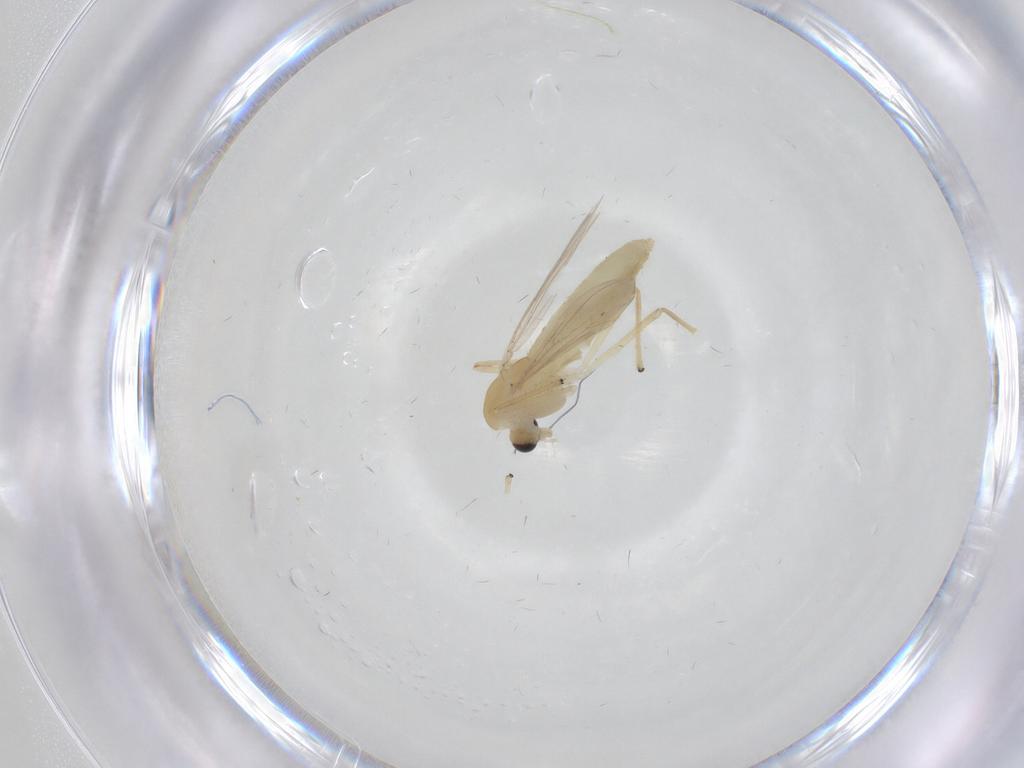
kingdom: Animalia
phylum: Arthropoda
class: Insecta
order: Diptera
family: Chironomidae
